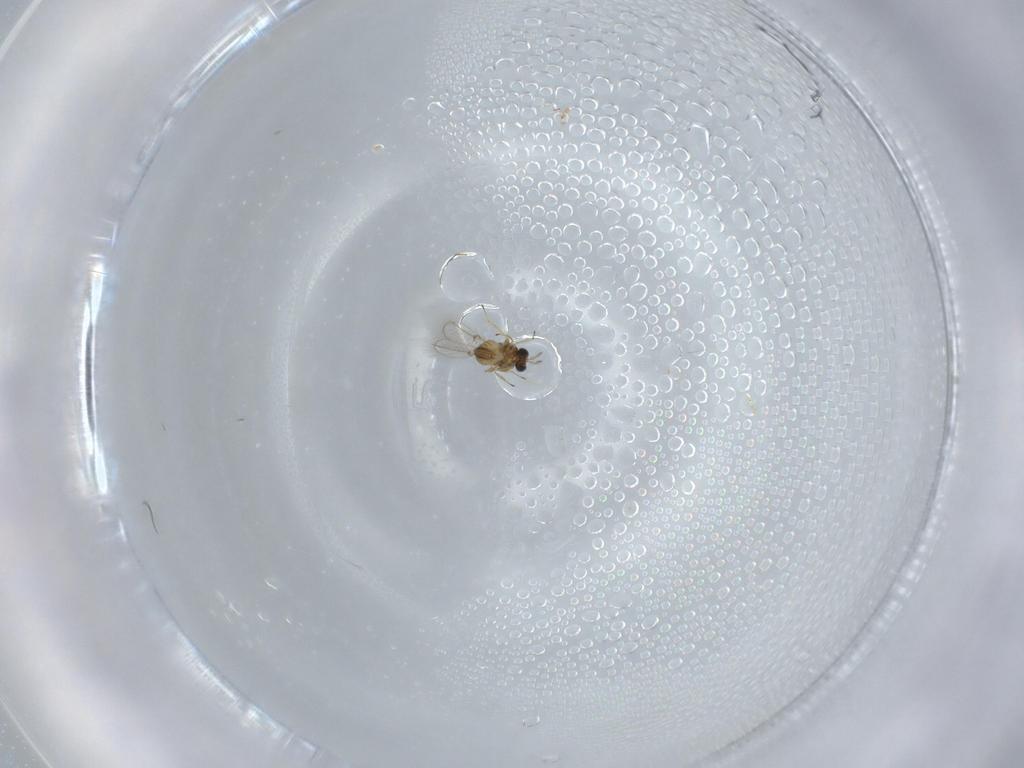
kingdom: Animalia
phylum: Arthropoda
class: Insecta
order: Hymenoptera
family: Trichogrammatidae
